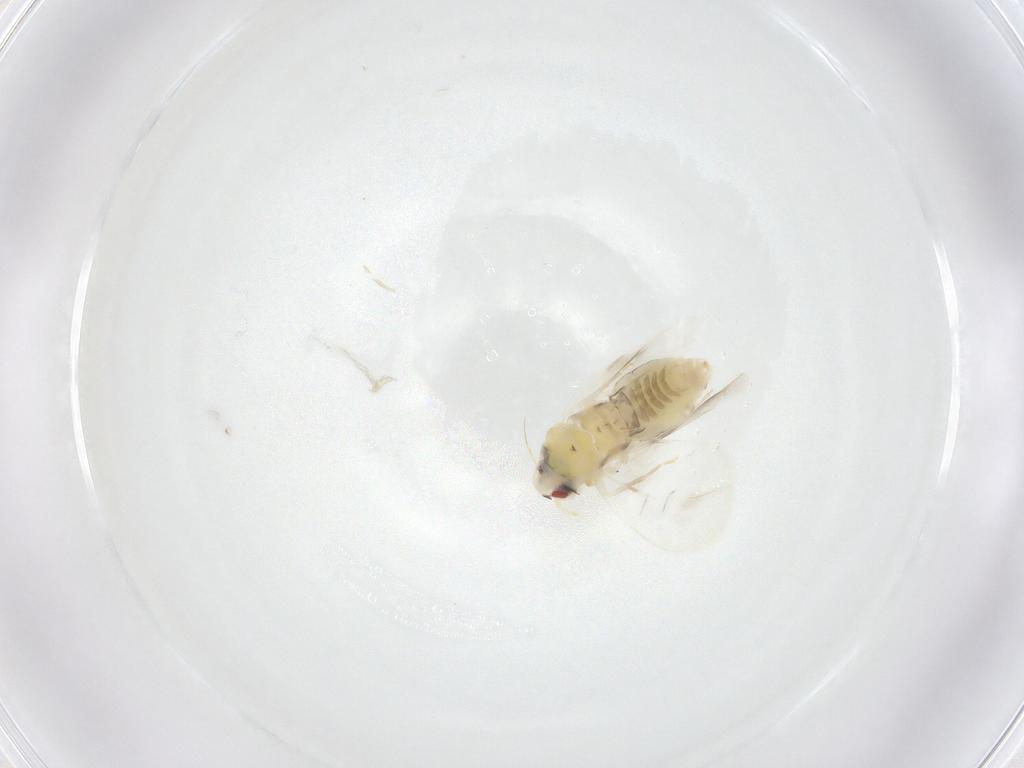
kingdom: Animalia
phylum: Arthropoda
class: Insecta
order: Hemiptera
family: Aleyrodidae
